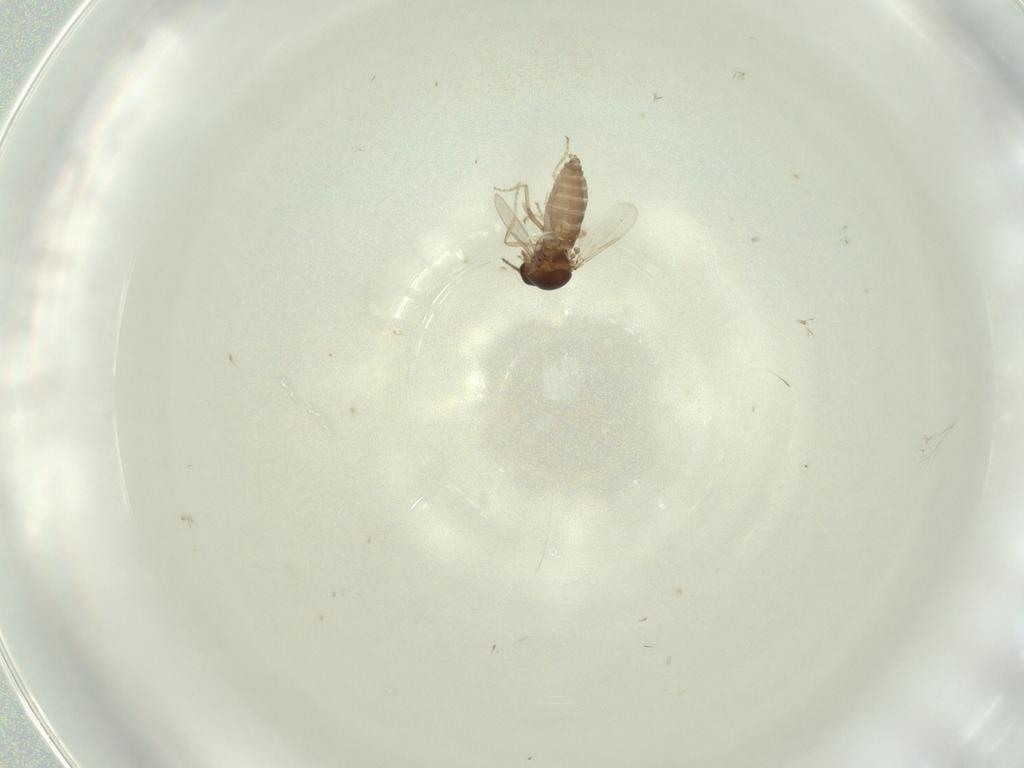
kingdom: Animalia
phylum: Arthropoda
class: Insecta
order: Diptera
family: Ceratopogonidae
